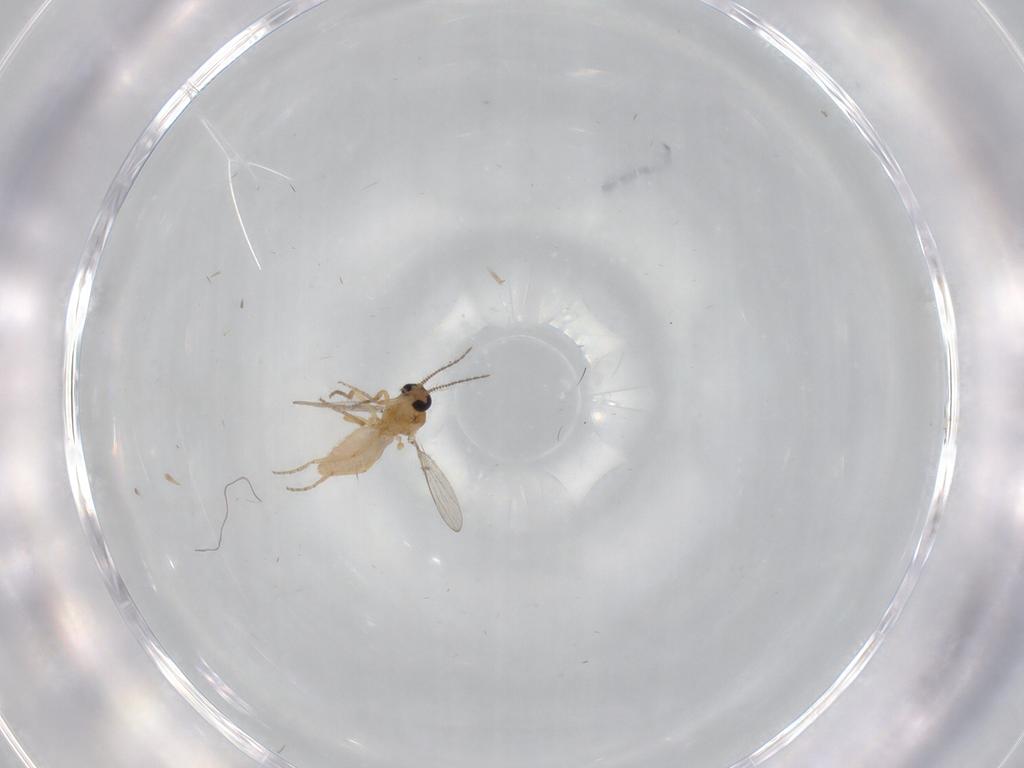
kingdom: Animalia
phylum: Arthropoda
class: Insecta
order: Diptera
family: Ceratopogonidae
